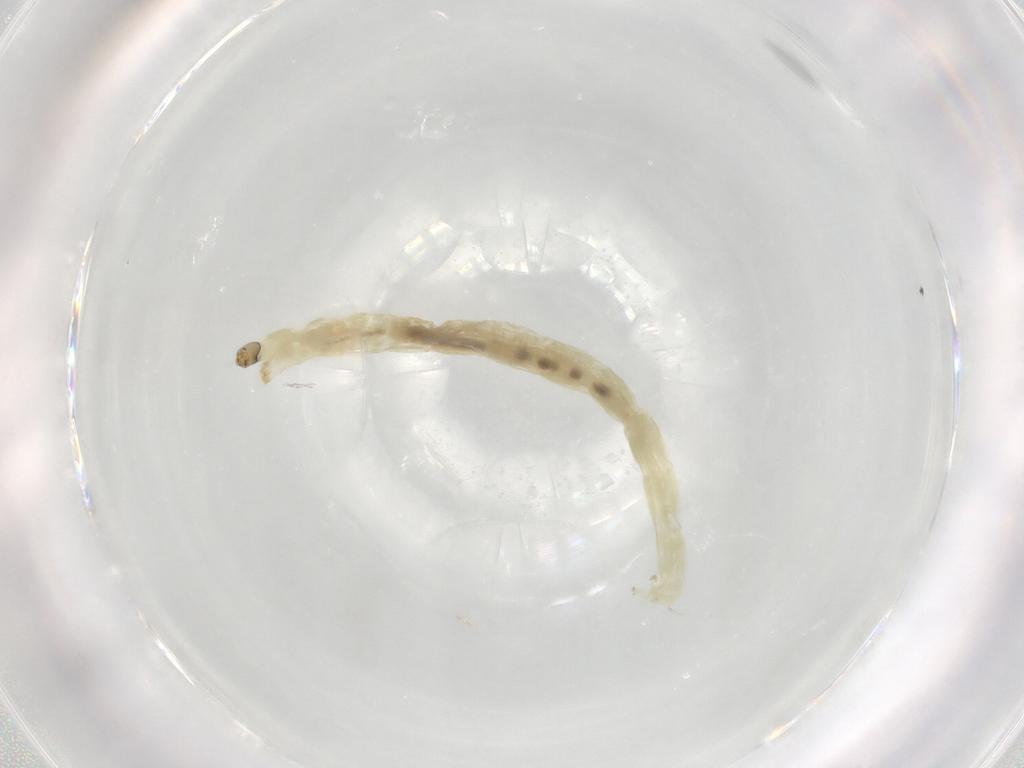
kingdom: Animalia
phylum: Arthropoda
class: Insecta
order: Diptera
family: Chironomidae
